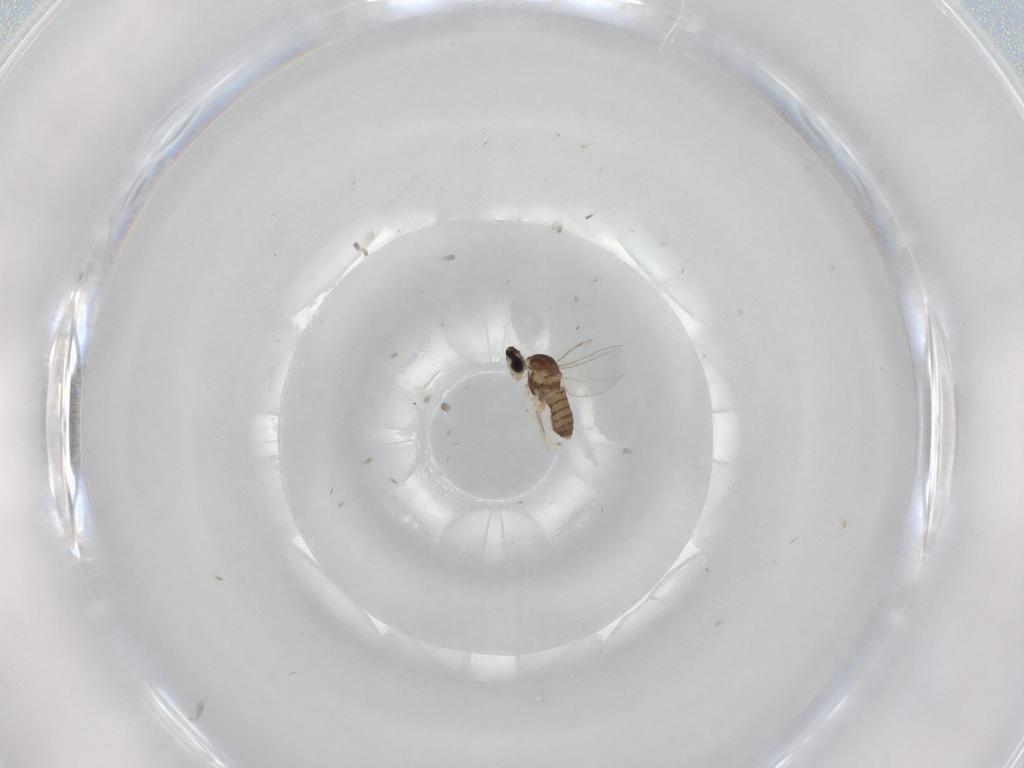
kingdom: Animalia
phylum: Arthropoda
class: Insecta
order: Diptera
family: Cecidomyiidae
